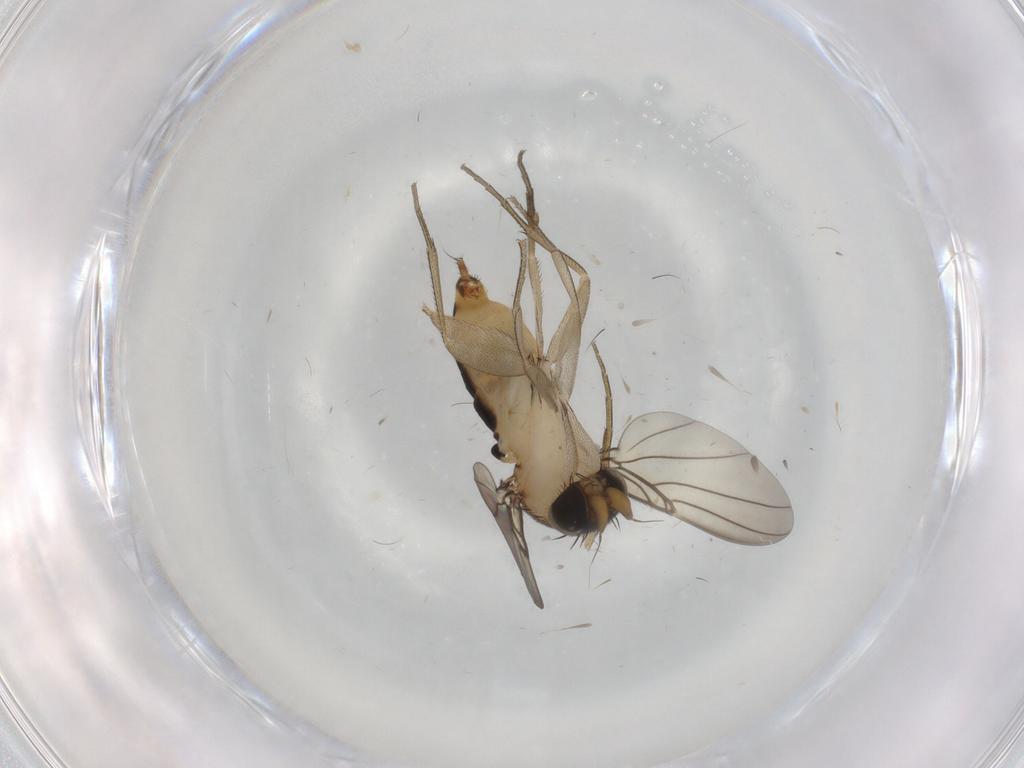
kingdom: Animalia
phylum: Arthropoda
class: Insecta
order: Diptera
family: Phoridae
